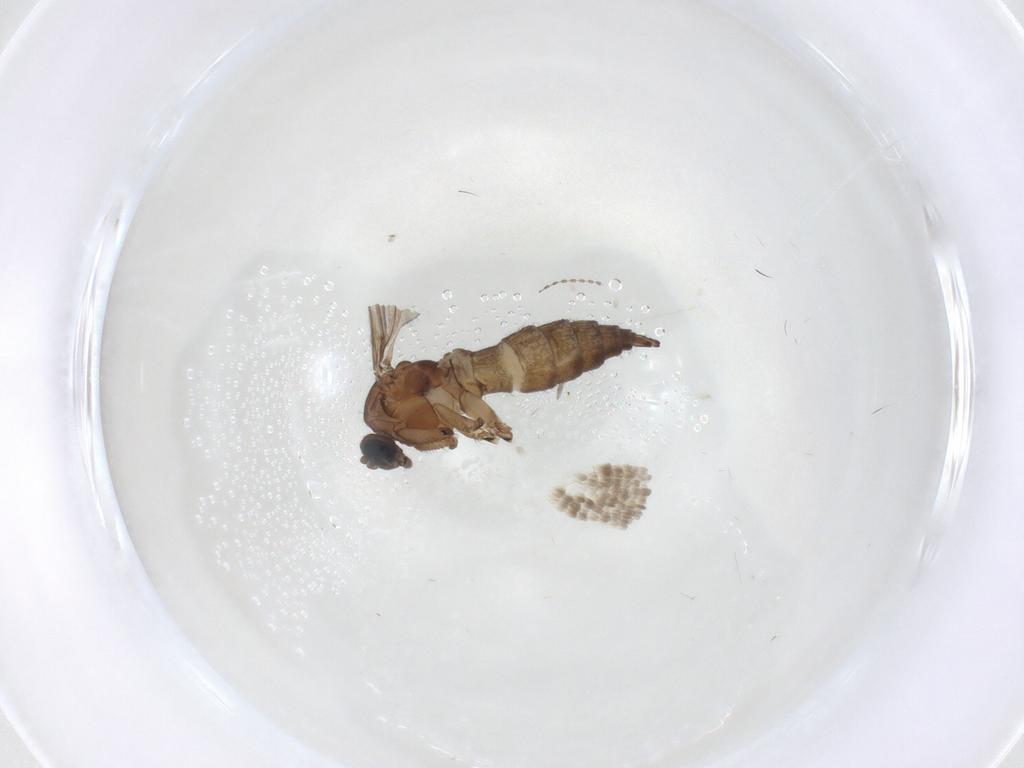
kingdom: Animalia
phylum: Arthropoda
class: Insecta
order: Diptera
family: Sciaridae
